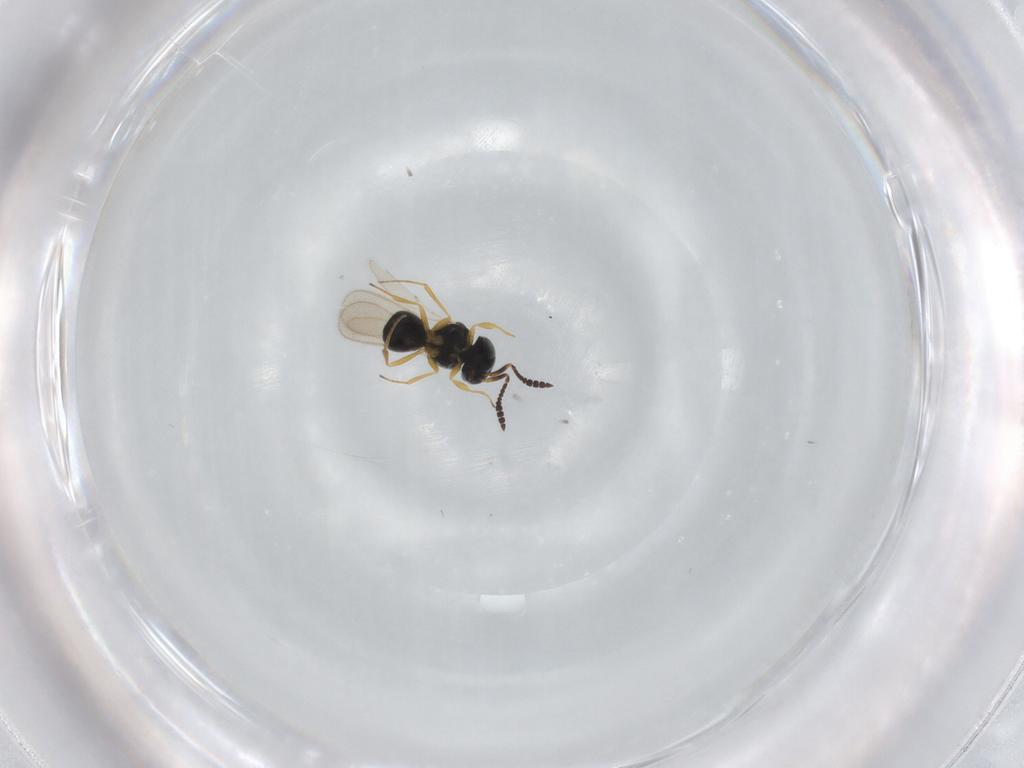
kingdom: Animalia
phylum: Arthropoda
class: Insecta
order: Hymenoptera
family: Scelionidae
